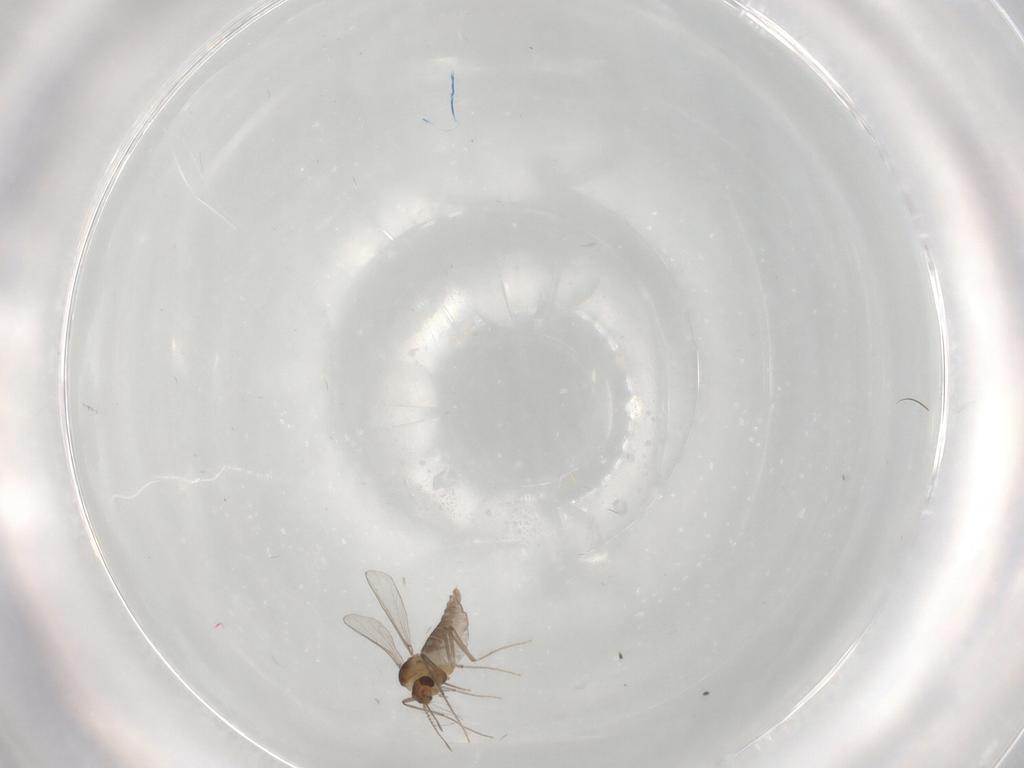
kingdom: Animalia
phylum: Arthropoda
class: Insecta
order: Diptera
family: Chironomidae
